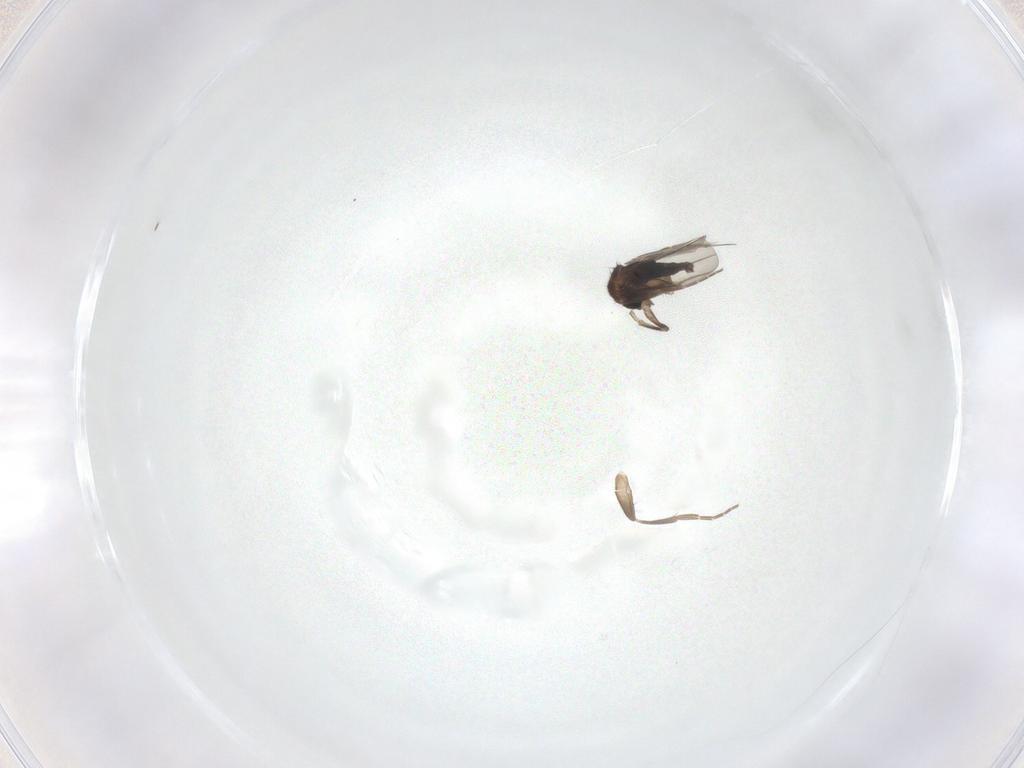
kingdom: Animalia
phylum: Arthropoda
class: Insecta
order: Diptera
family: Phoridae
